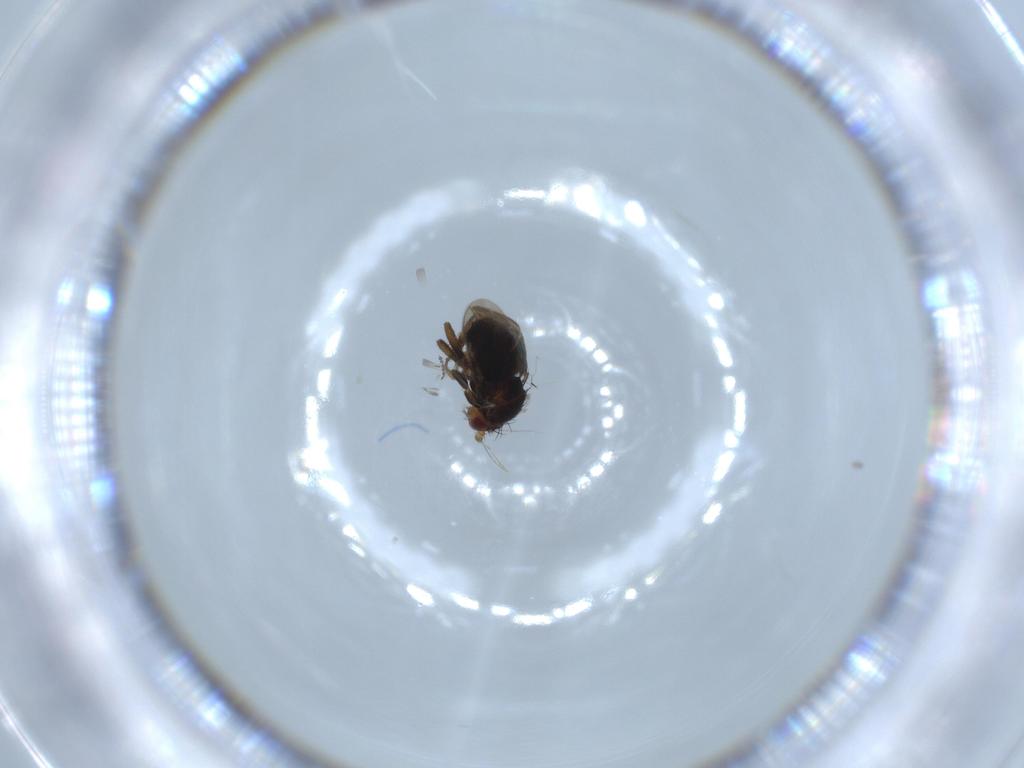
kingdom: Animalia
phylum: Arthropoda
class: Insecta
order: Diptera
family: Sphaeroceridae
